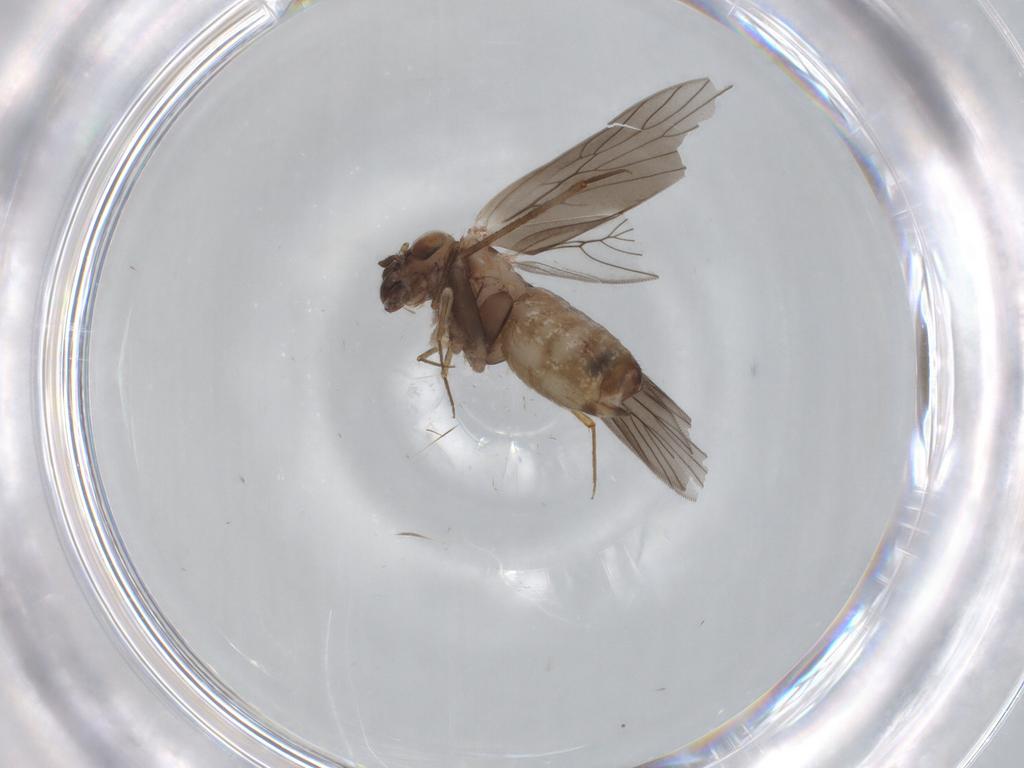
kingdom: Animalia
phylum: Arthropoda
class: Insecta
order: Psocodea
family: Lepidopsocidae
